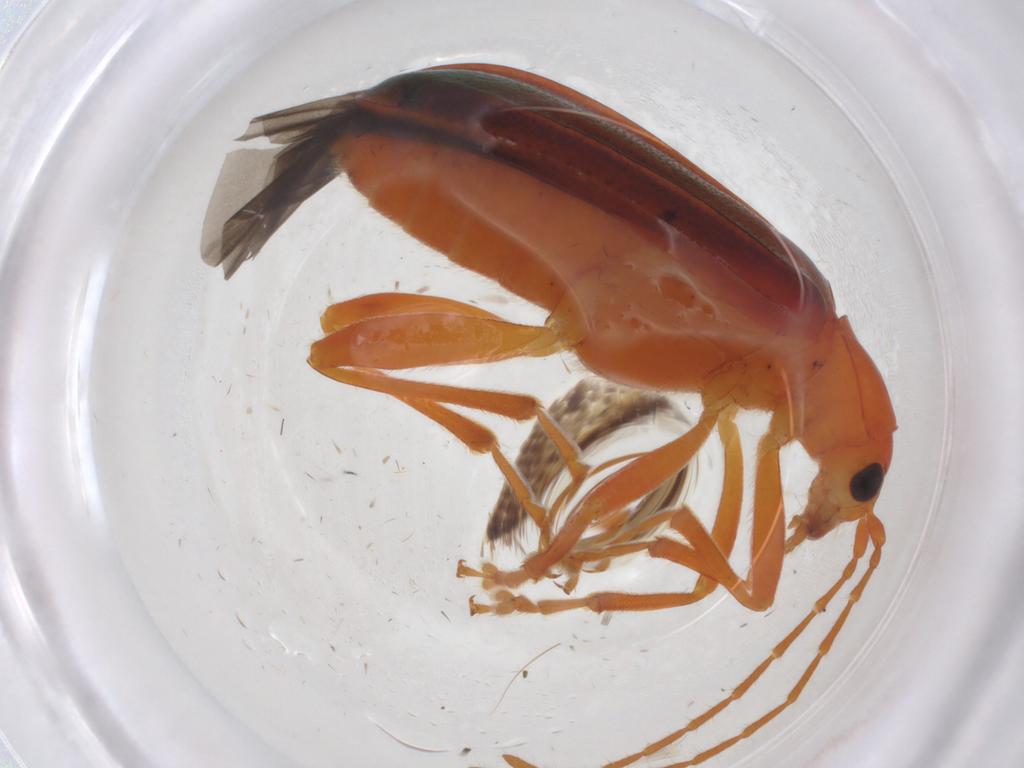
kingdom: Animalia
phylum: Arthropoda
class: Insecta
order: Coleoptera
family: Chrysomelidae
